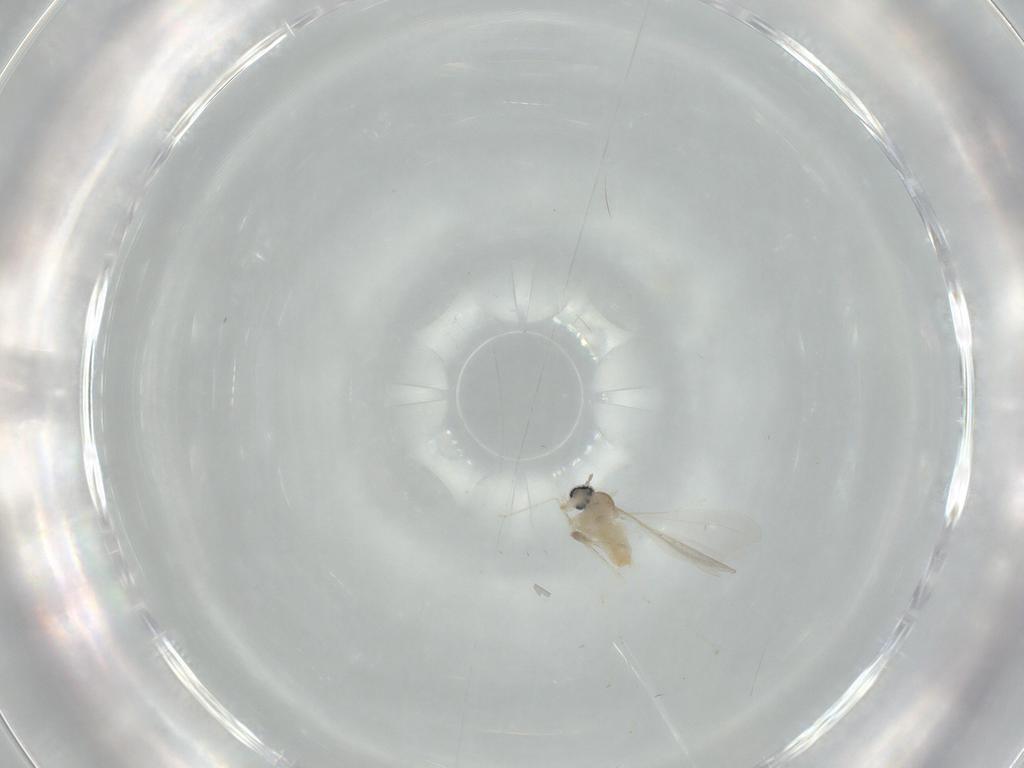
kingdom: Animalia
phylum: Arthropoda
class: Insecta
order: Diptera
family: Cecidomyiidae
